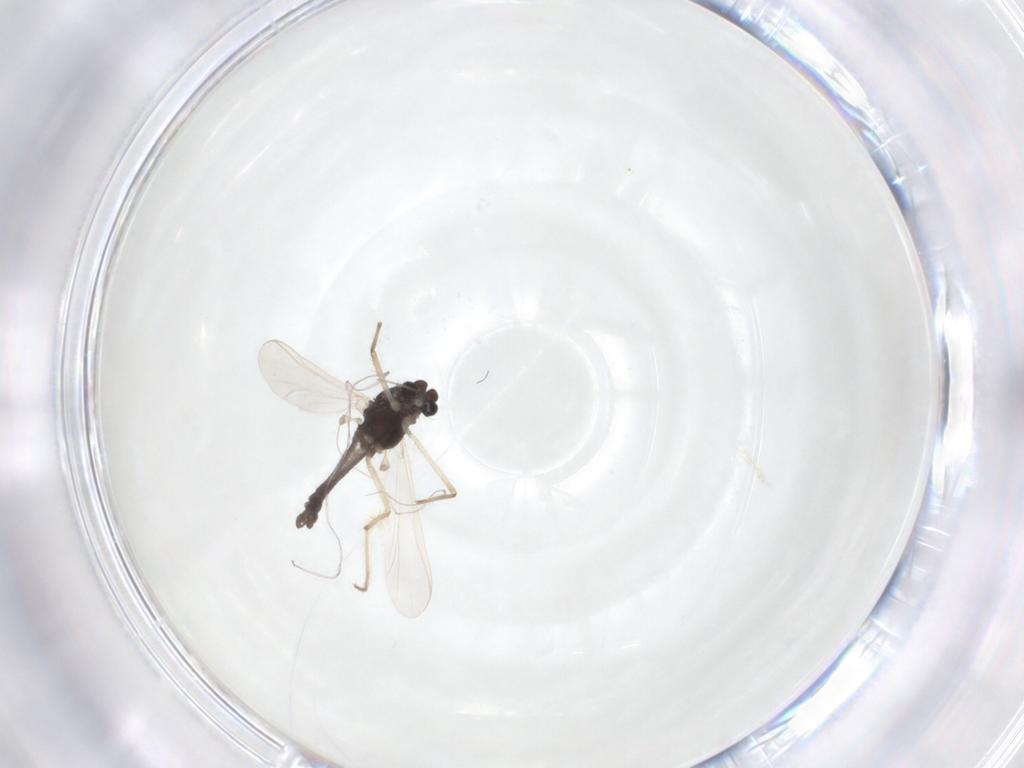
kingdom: Animalia
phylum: Arthropoda
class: Insecta
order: Diptera
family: Chironomidae
